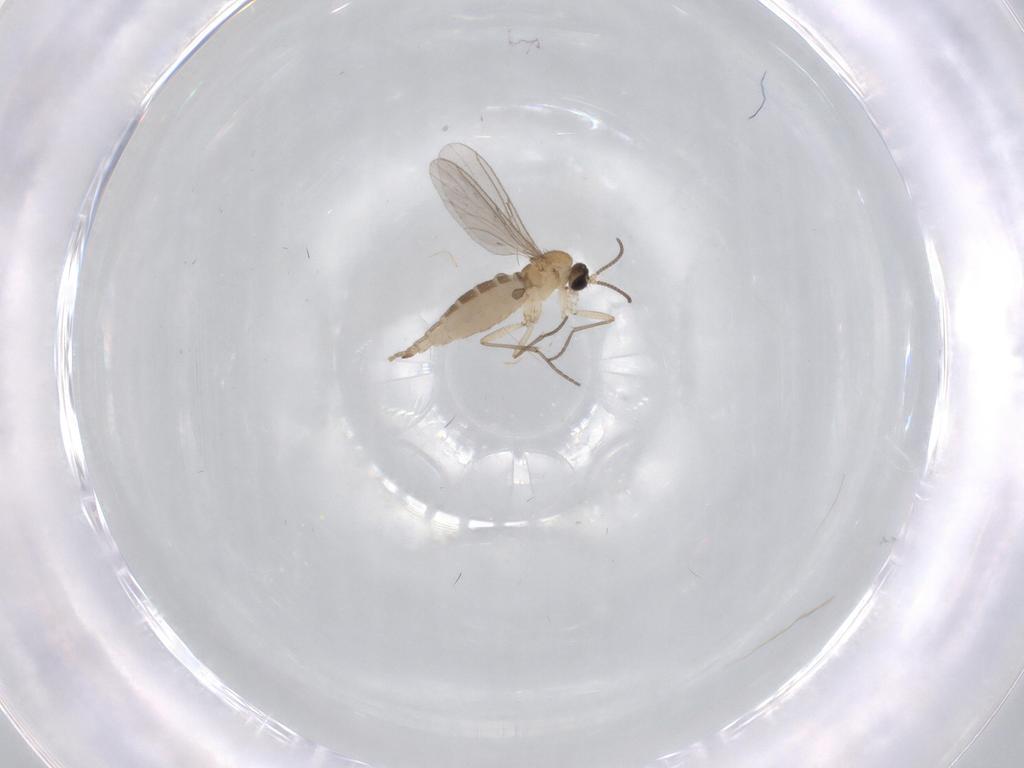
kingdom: Animalia
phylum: Arthropoda
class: Insecta
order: Diptera
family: Sciaridae
